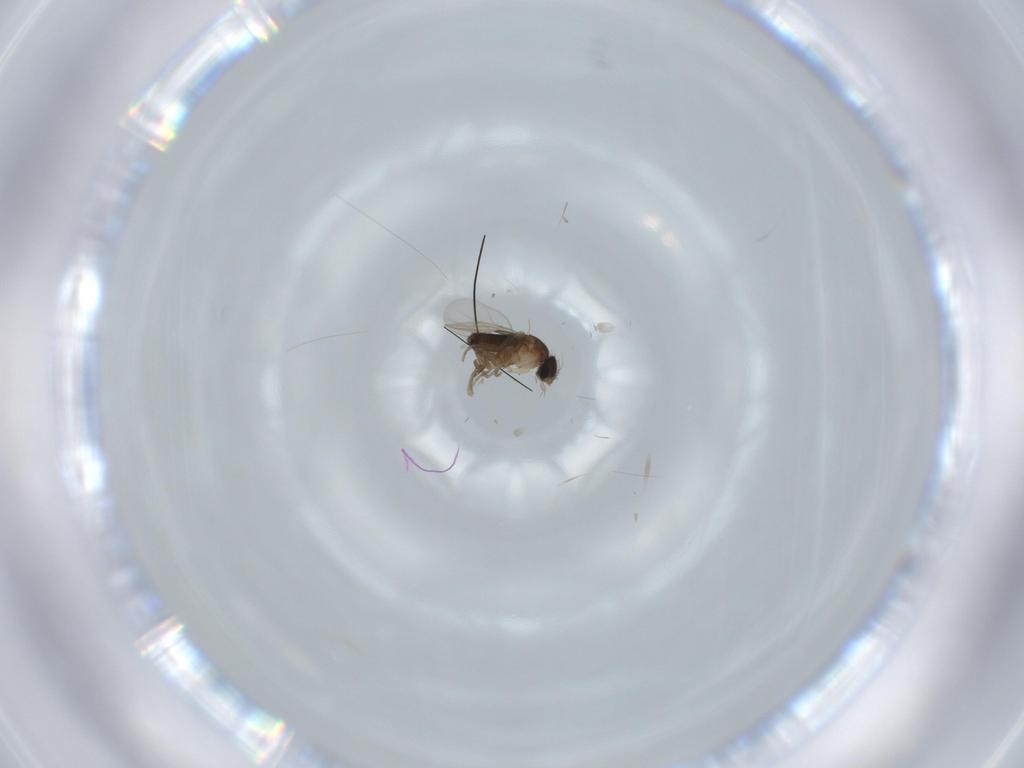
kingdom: Animalia
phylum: Arthropoda
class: Insecta
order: Diptera
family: Phoridae
